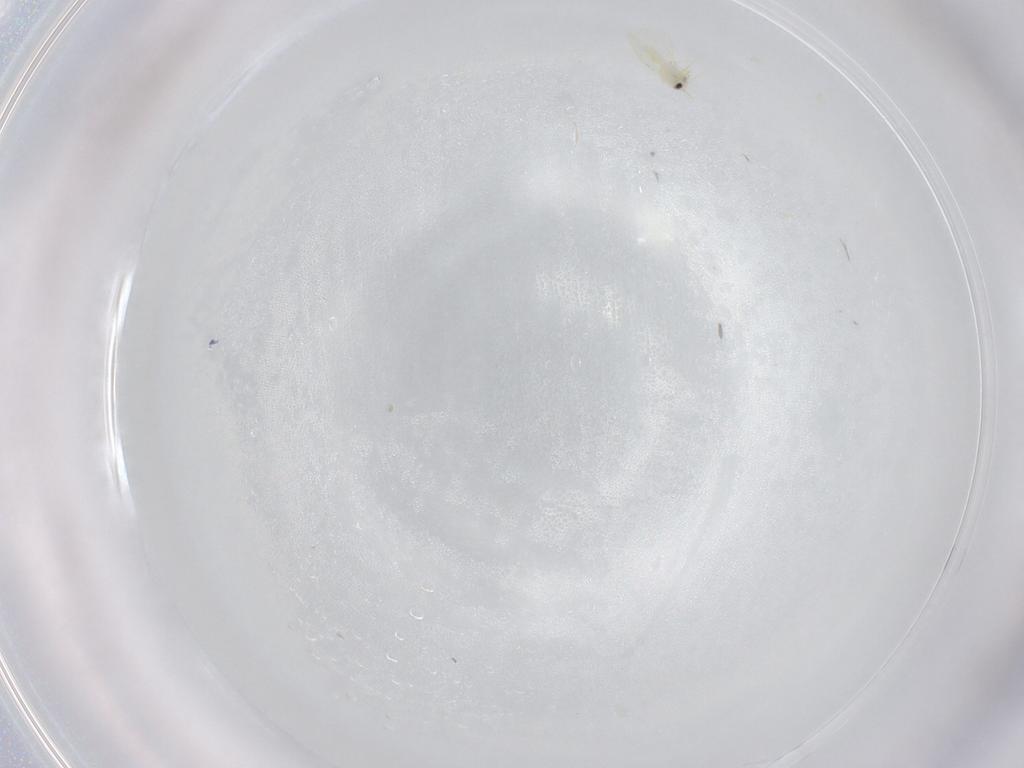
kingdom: Animalia
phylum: Arthropoda
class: Insecta
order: Hemiptera
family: Aleyrodidae
